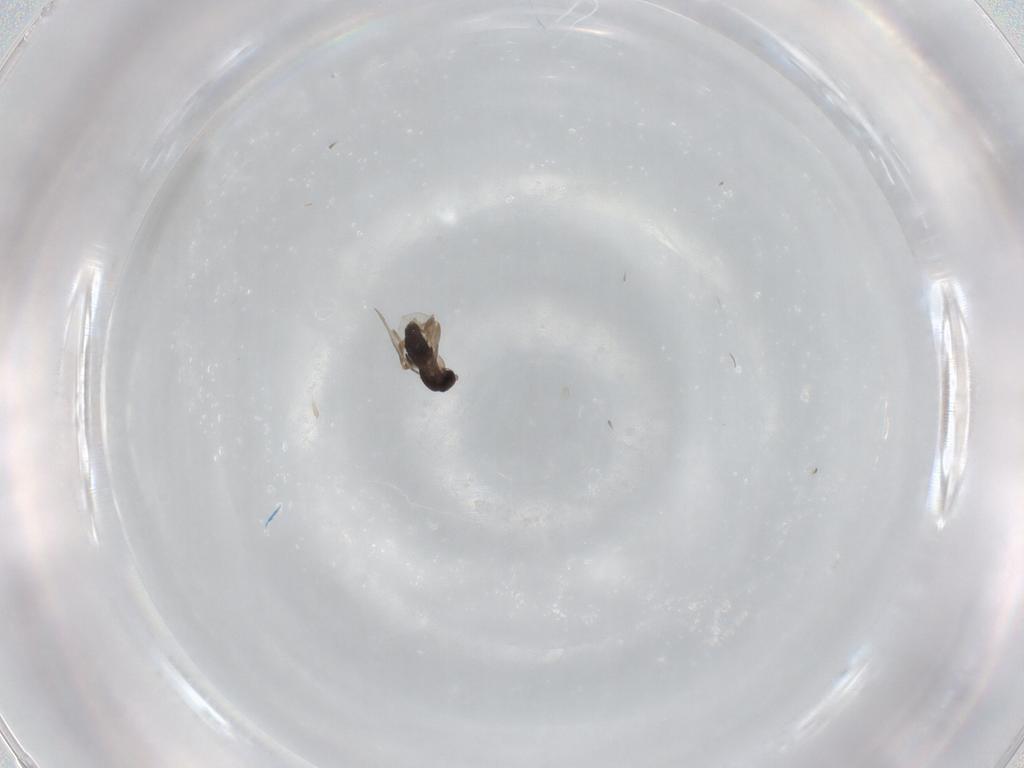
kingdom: Animalia
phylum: Arthropoda
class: Insecta
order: Diptera
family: Phoridae
